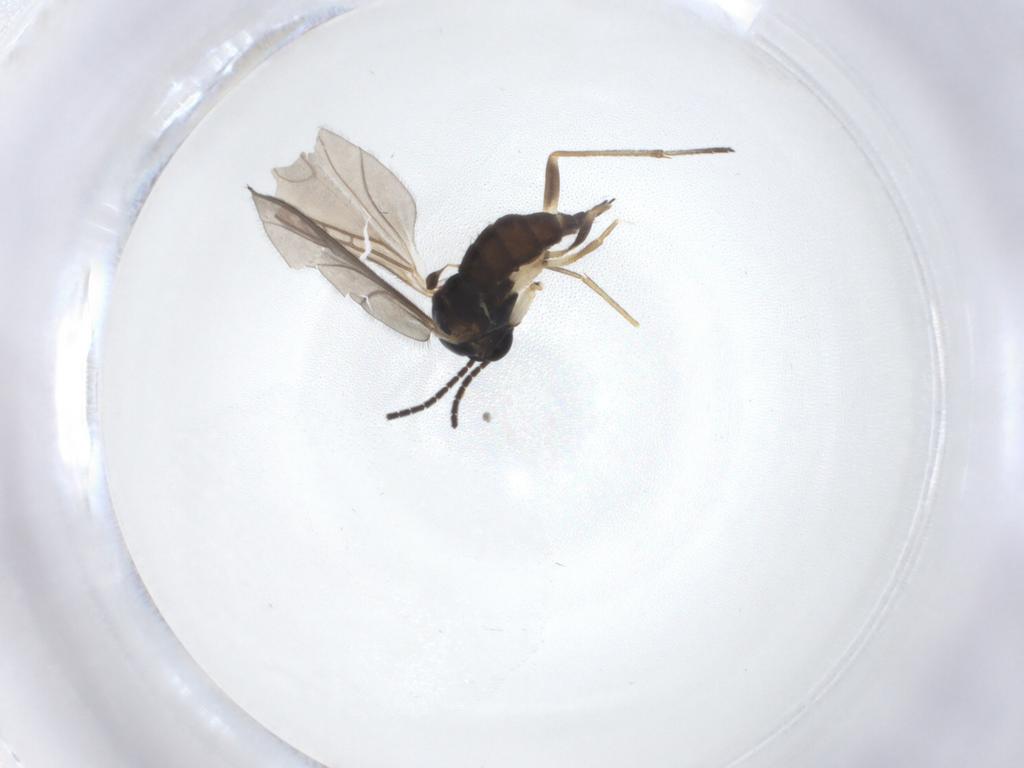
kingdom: Animalia
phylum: Arthropoda
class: Insecta
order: Diptera
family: Sciaridae
